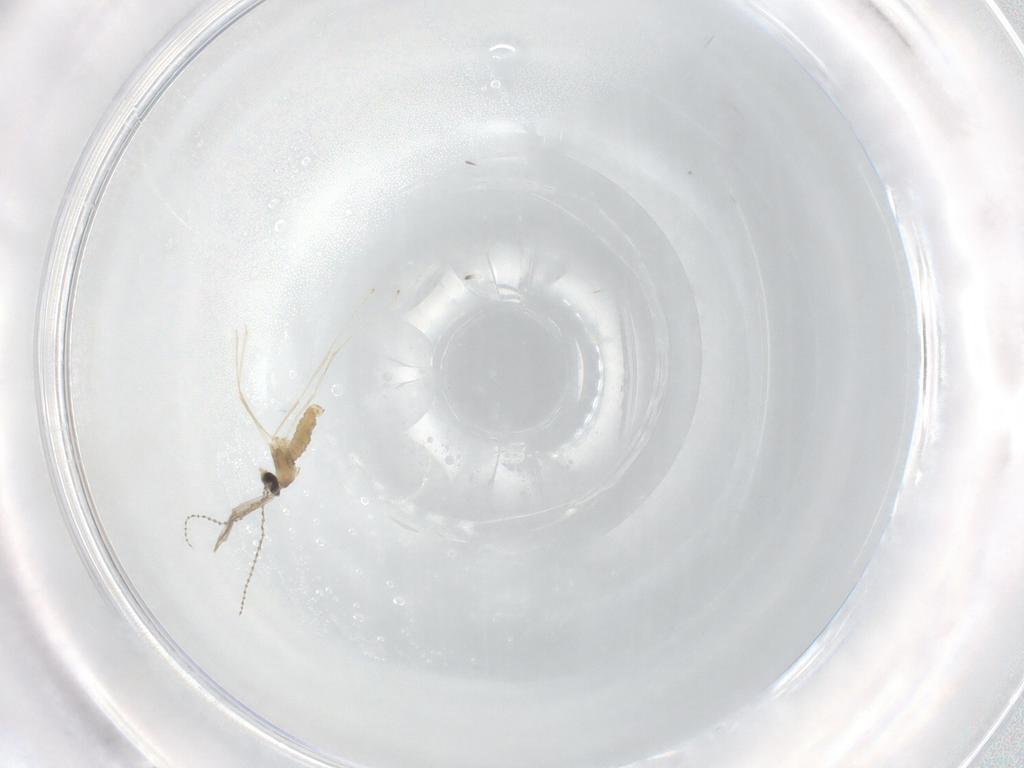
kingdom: Animalia
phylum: Arthropoda
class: Insecta
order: Diptera
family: Cecidomyiidae
